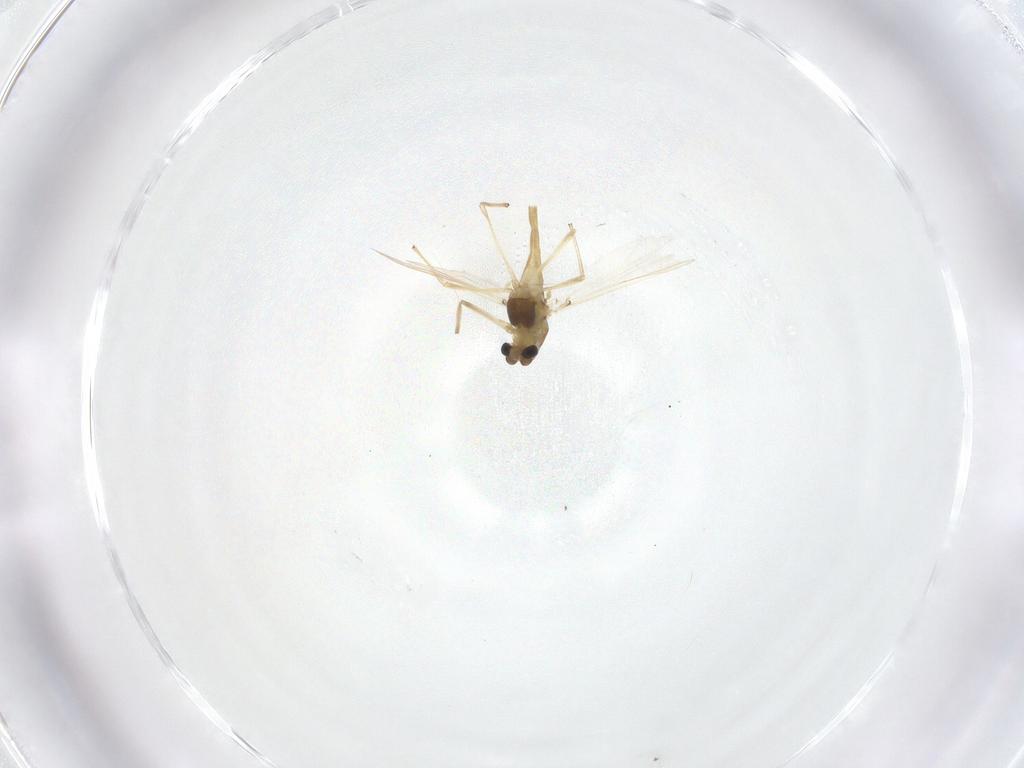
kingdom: Animalia
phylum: Arthropoda
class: Insecta
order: Diptera
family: Chironomidae
